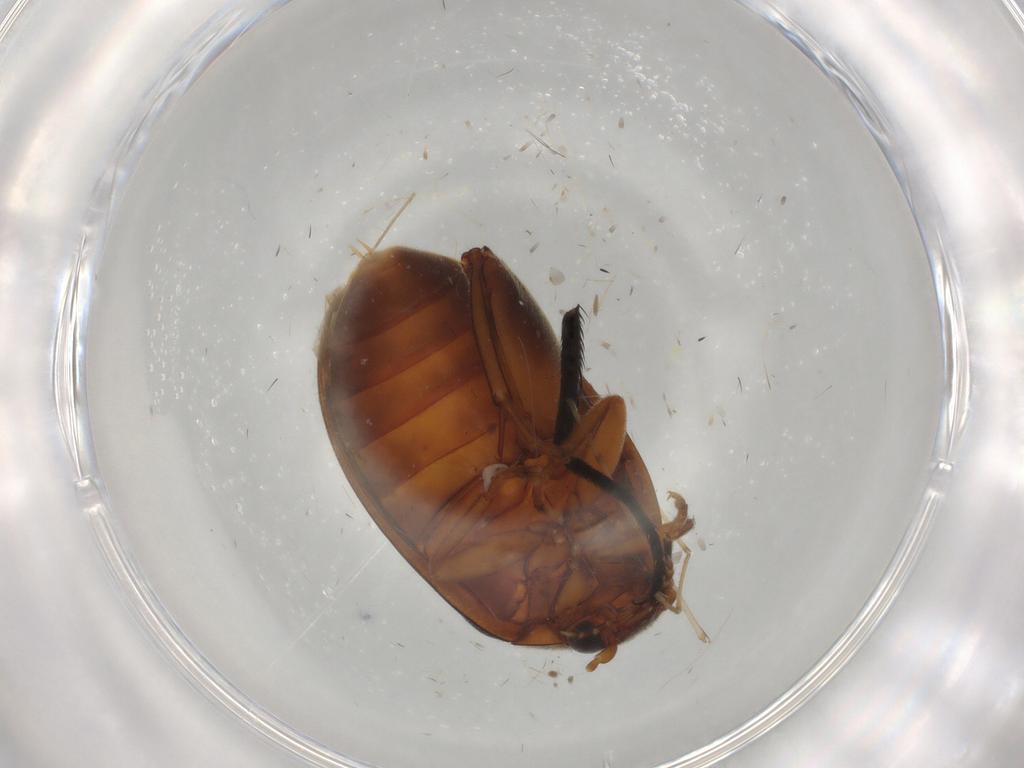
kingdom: Animalia
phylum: Arthropoda
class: Insecta
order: Coleoptera
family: Scirtidae
